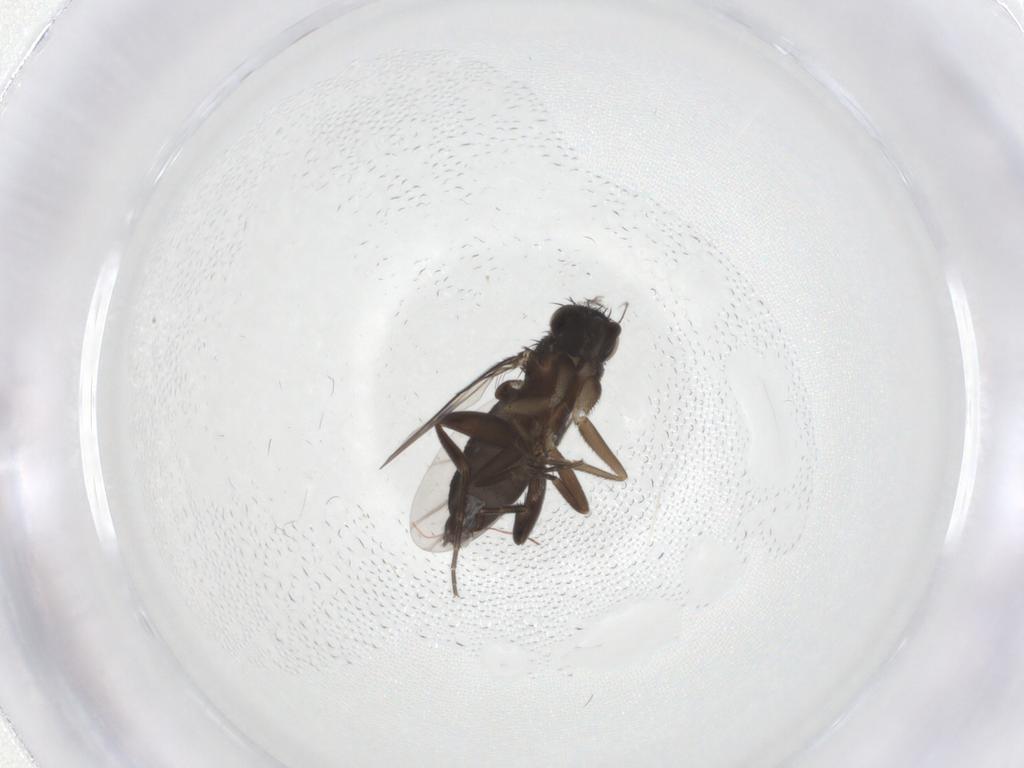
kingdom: Animalia
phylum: Arthropoda
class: Insecta
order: Diptera
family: Phoridae
